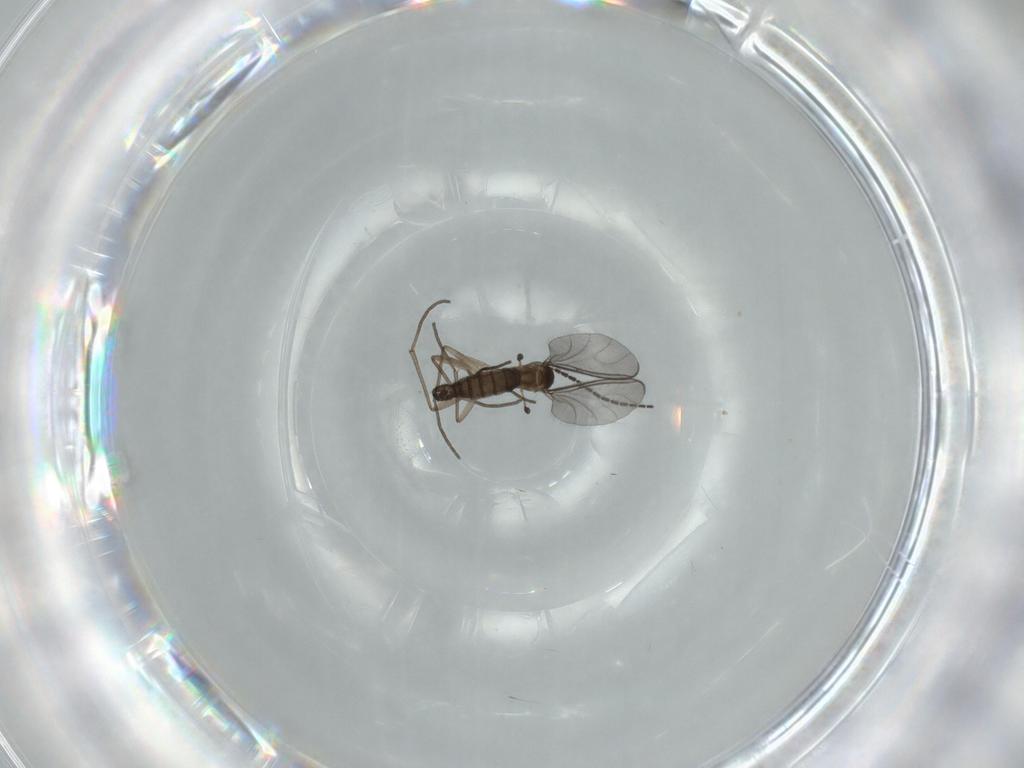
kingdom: Animalia
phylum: Arthropoda
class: Insecta
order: Diptera
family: Sciaridae
